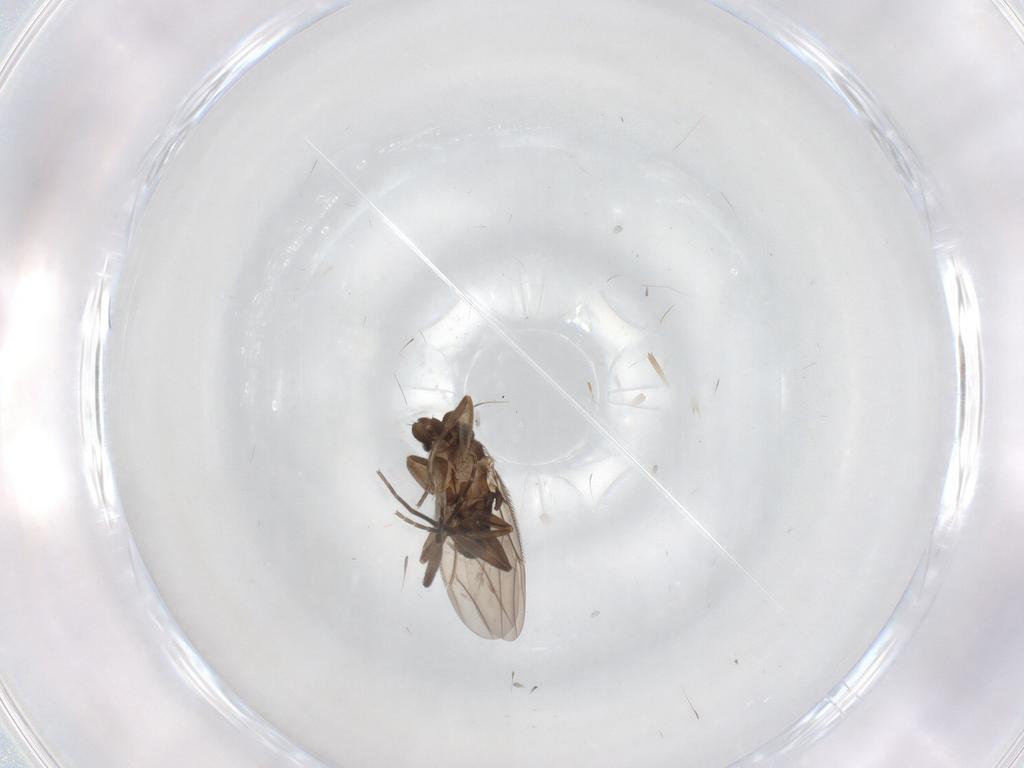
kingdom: Animalia
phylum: Arthropoda
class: Insecta
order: Diptera
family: Phoridae
